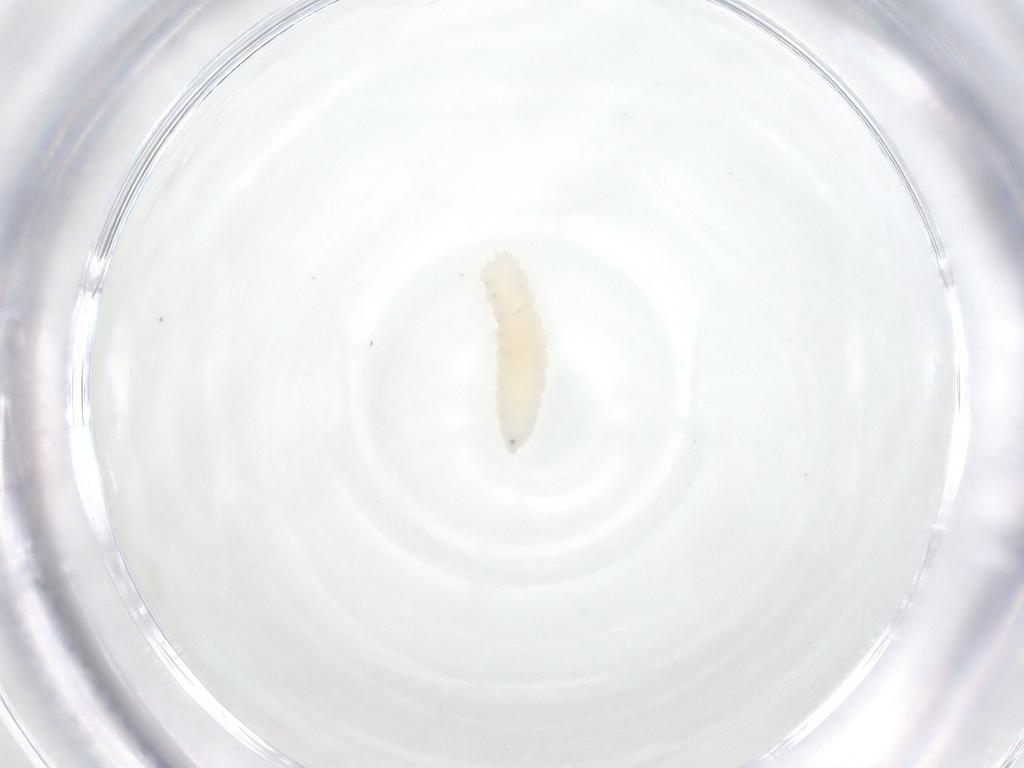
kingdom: Animalia
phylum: Arthropoda
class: Insecta
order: Diptera
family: Cecidomyiidae
